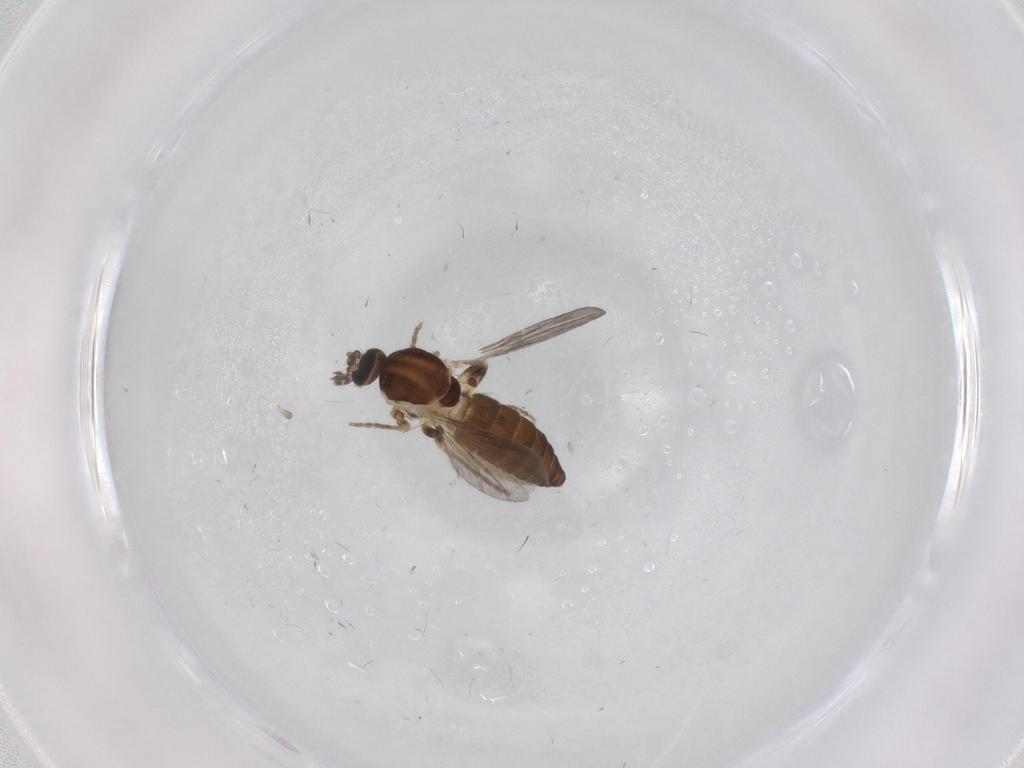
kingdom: Animalia
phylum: Arthropoda
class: Insecta
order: Diptera
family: Ceratopogonidae
